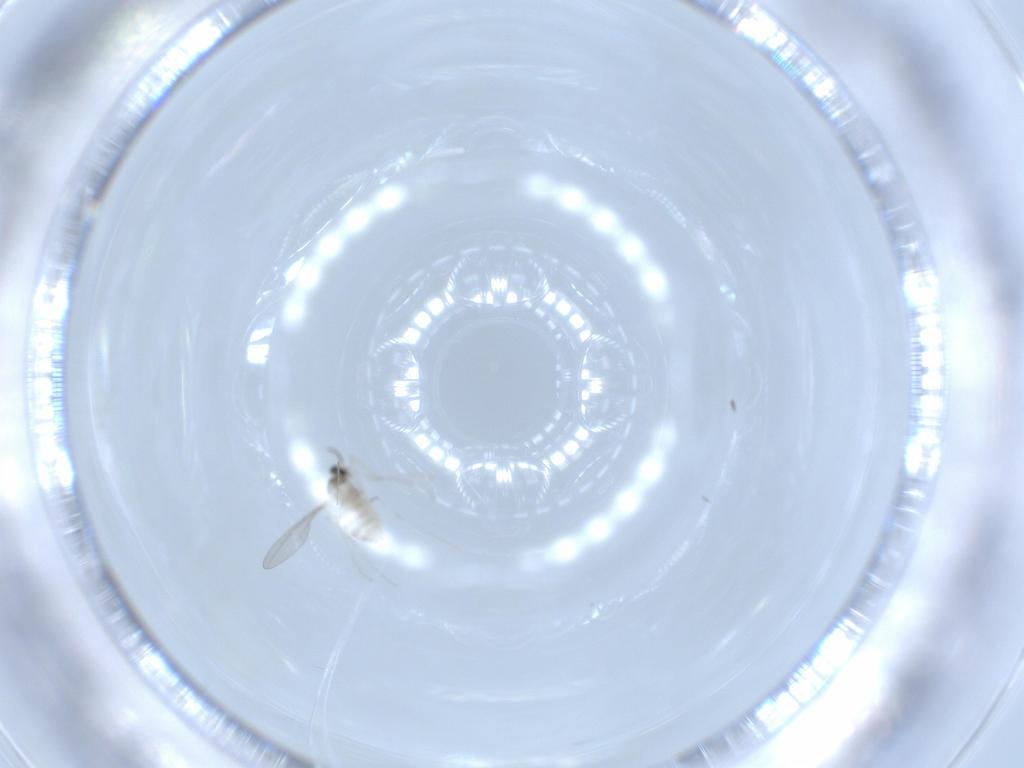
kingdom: Animalia
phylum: Arthropoda
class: Insecta
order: Diptera
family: Cecidomyiidae
